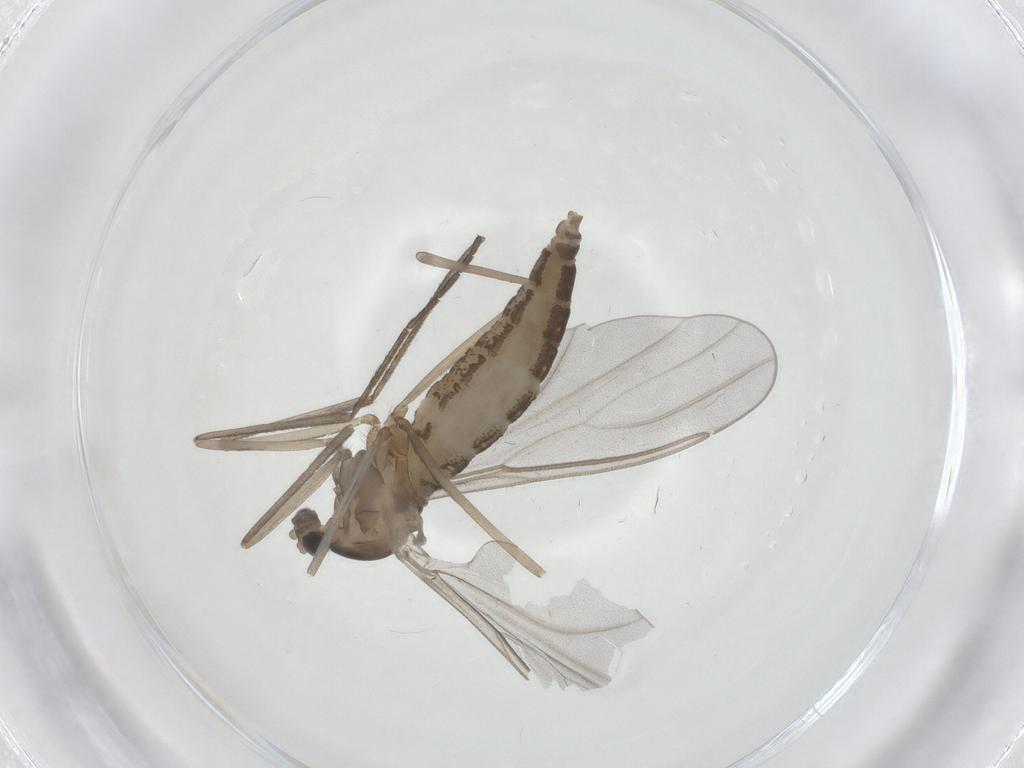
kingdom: Animalia
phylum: Arthropoda
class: Insecta
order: Diptera
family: Cecidomyiidae
